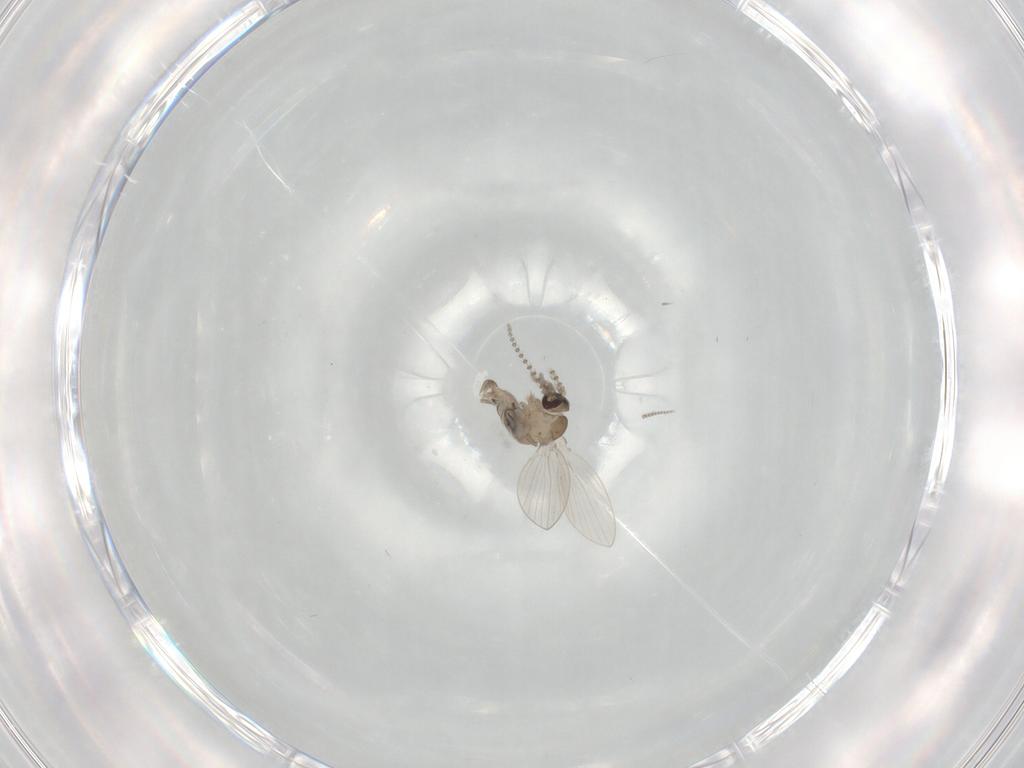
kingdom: Animalia
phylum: Arthropoda
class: Insecta
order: Diptera
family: Psychodidae
